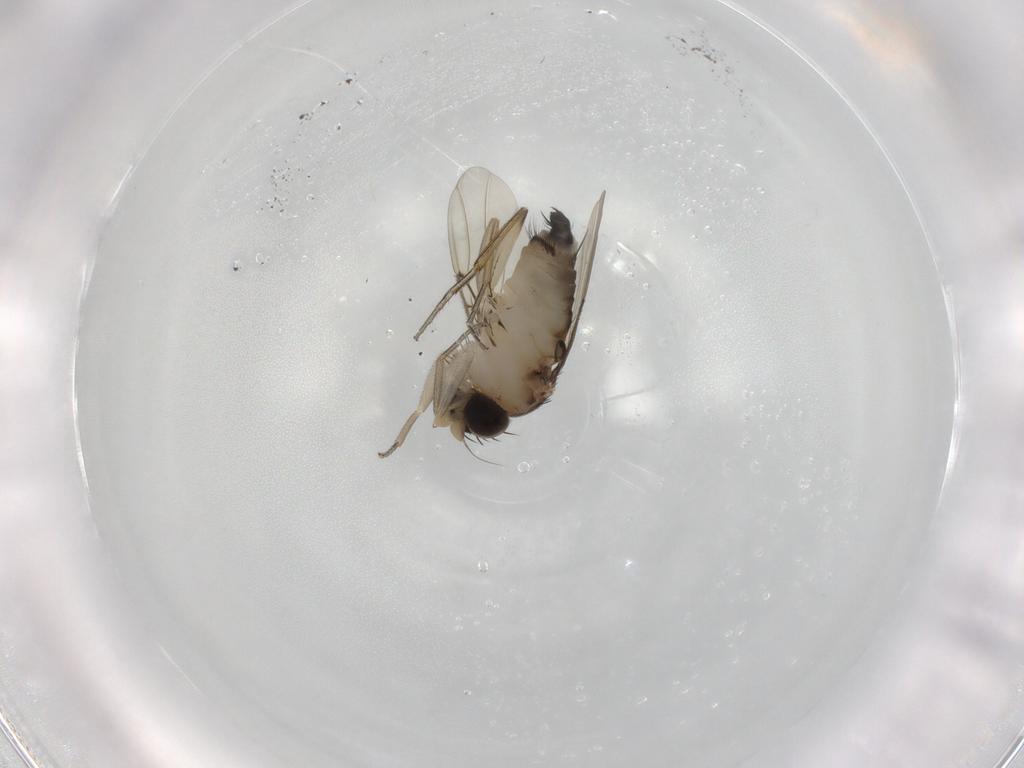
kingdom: Animalia
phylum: Arthropoda
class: Insecta
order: Diptera
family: Phoridae
